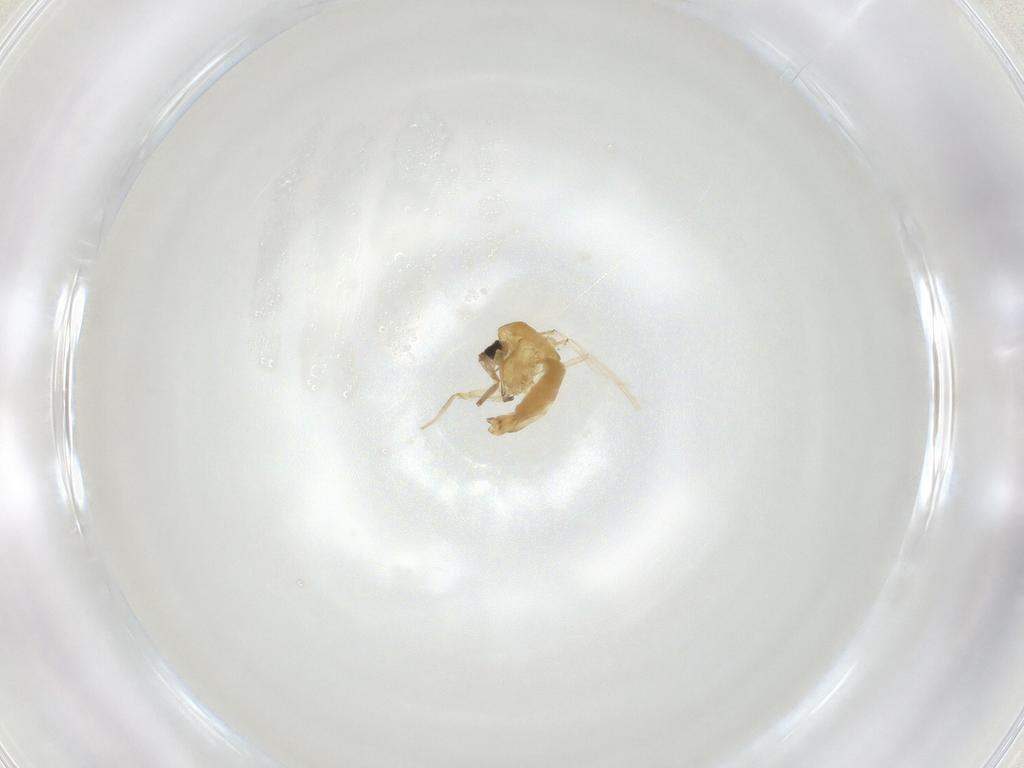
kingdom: Animalia
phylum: Arthropoda
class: Insecta
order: Diptera
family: Chironomidae
